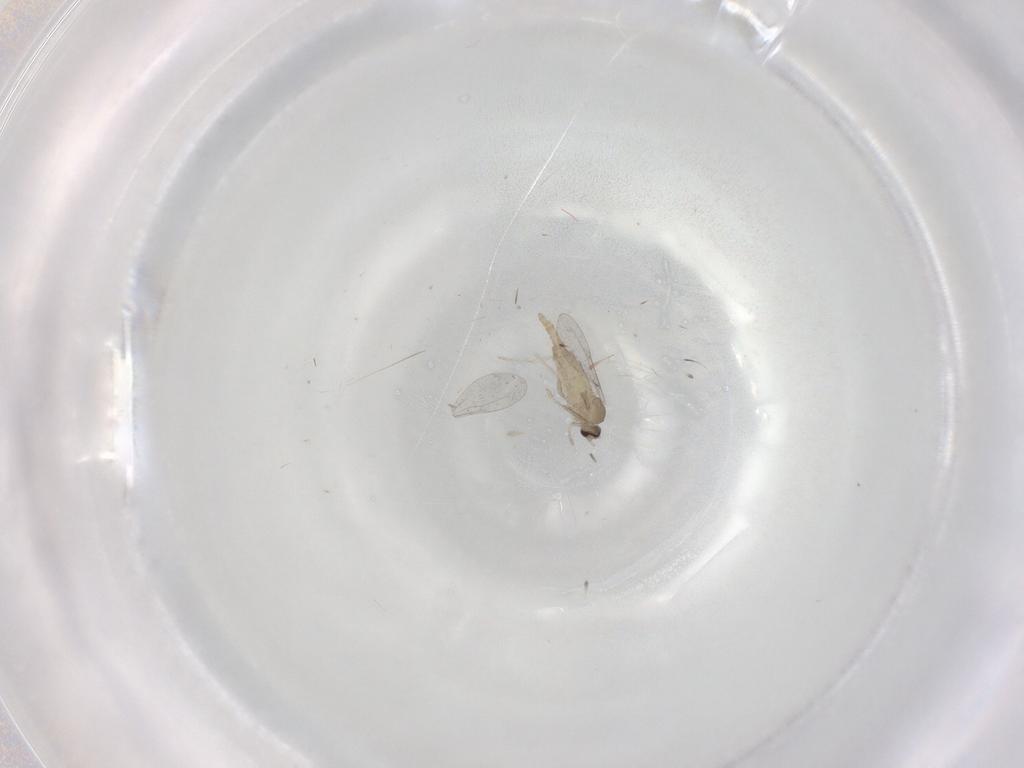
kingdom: Animalia
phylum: Arthropoda
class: Insecta
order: Diptera
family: Cecidomyiidae
